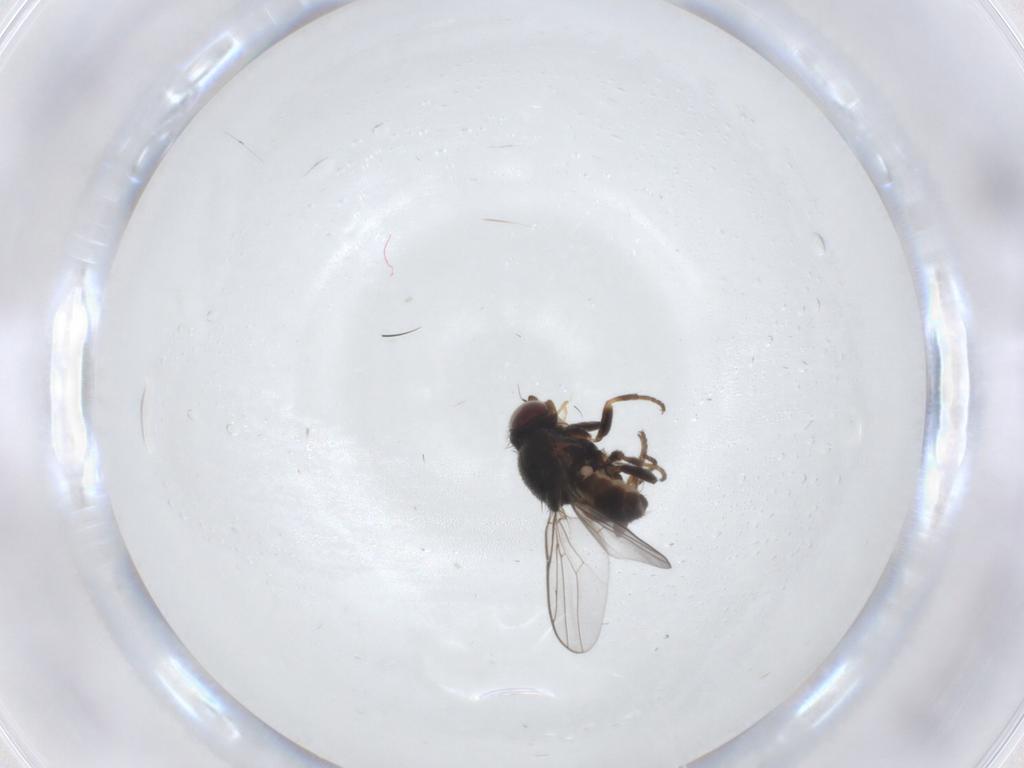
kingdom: Animalia
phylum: Arthropoda
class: Insecta
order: Diptera
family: Chloropidae
